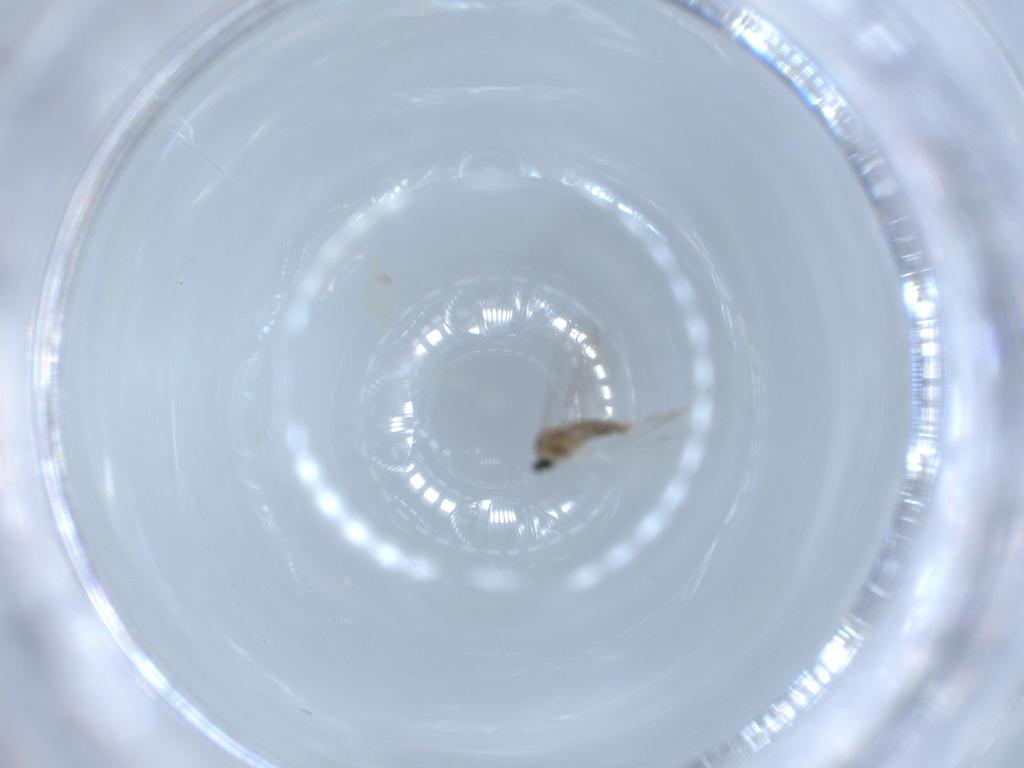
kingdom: Animalia
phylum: Arthropoda
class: Insecta
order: Diptera
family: Cecidomyiidae
